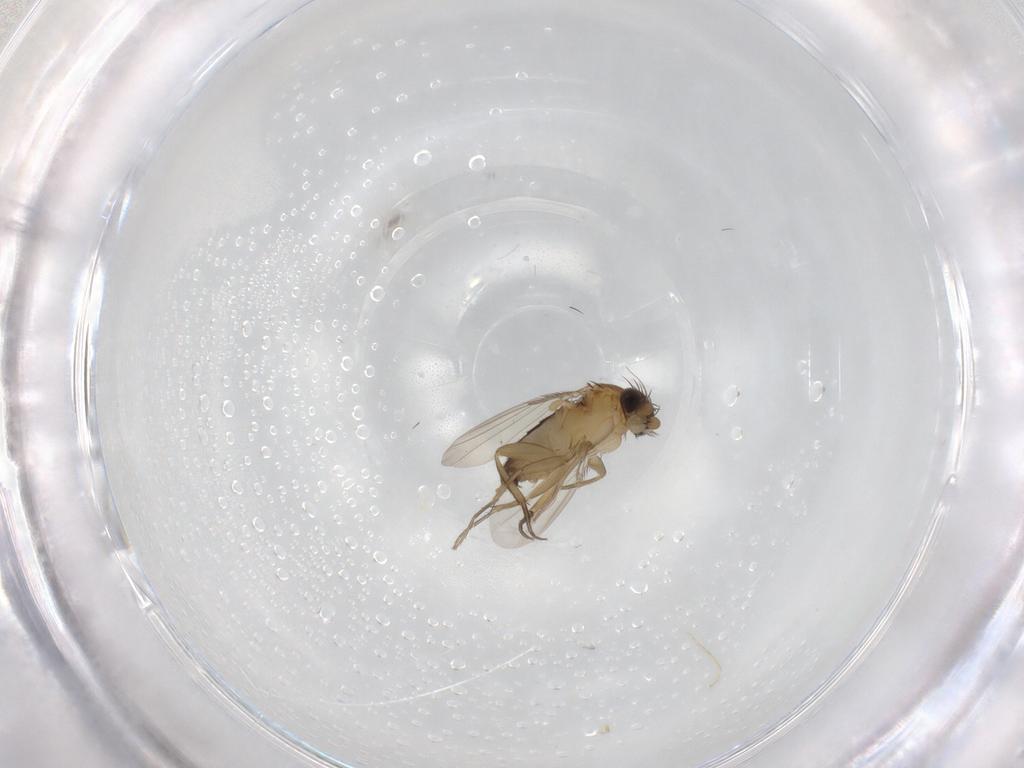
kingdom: Animalia
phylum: Arthropoda
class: Insecta
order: Diptera
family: Phoridae
